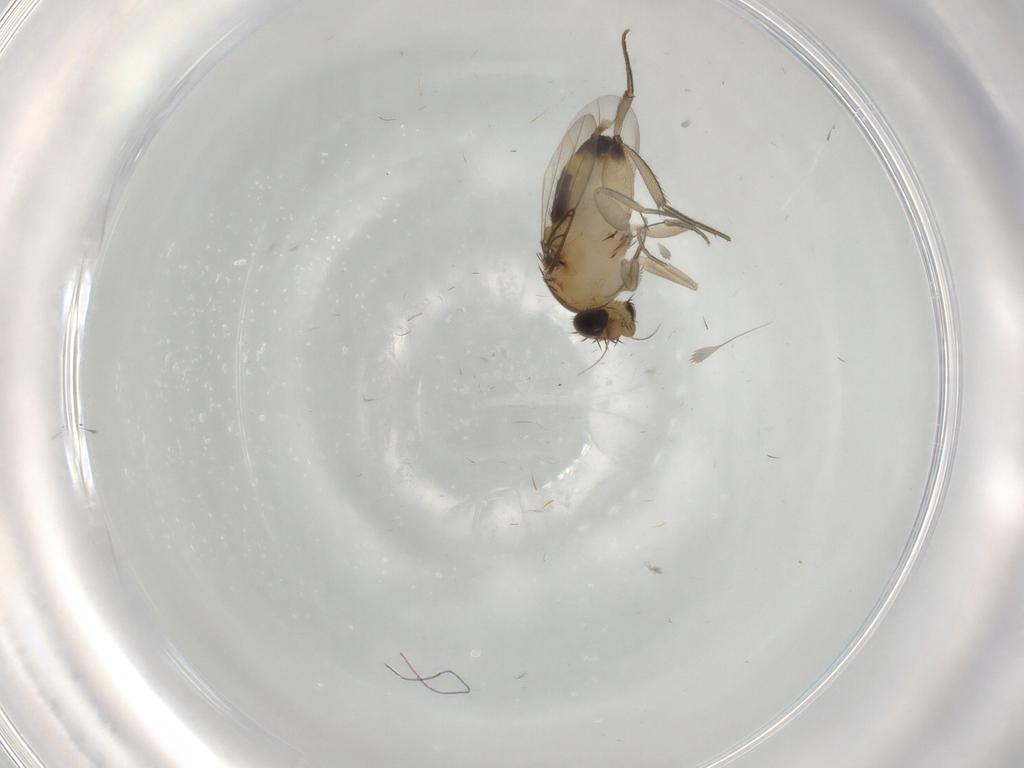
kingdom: Animalia
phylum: Arthropoda
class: Insecta
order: Diptera
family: Phoridae
